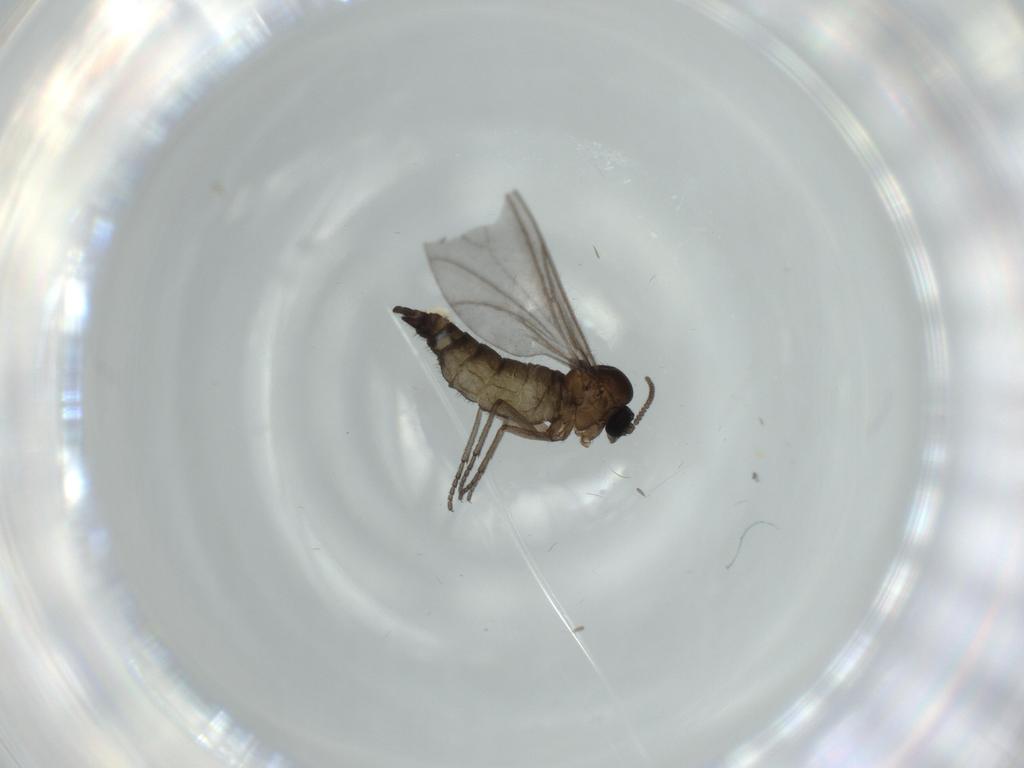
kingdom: Animalia
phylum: Arthropoda
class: Insecta
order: Diptera
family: Sciaridae
